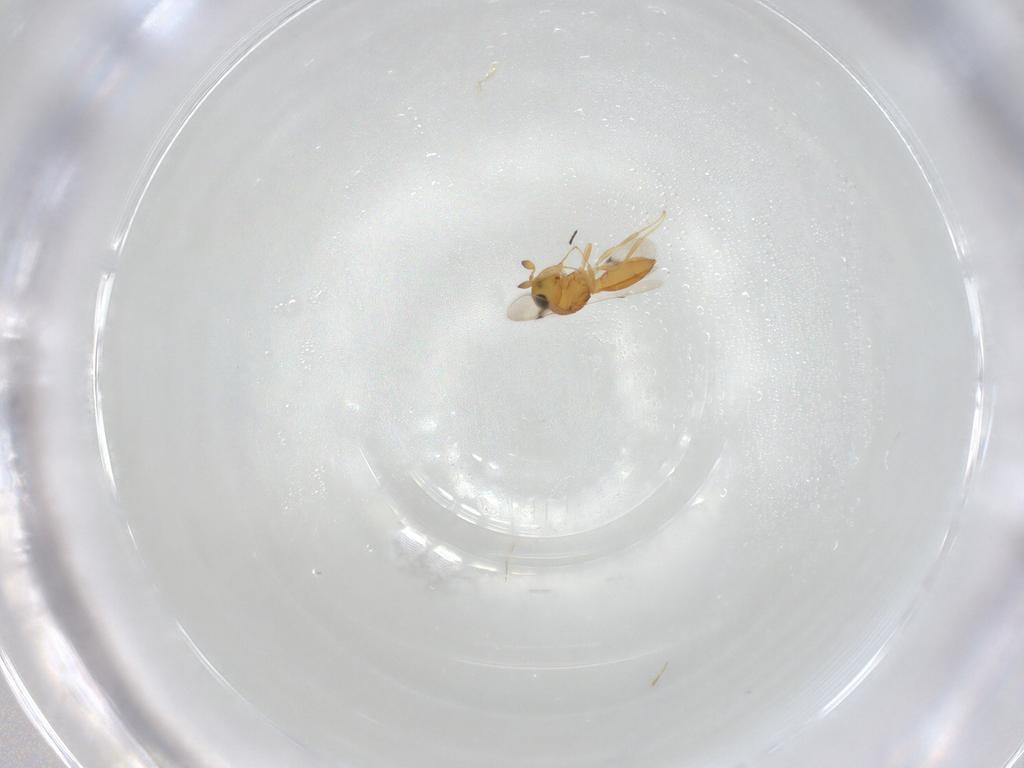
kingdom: Animalia
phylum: Arthropoda
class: Insecta
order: Hymenoptera
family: Scelionidae
